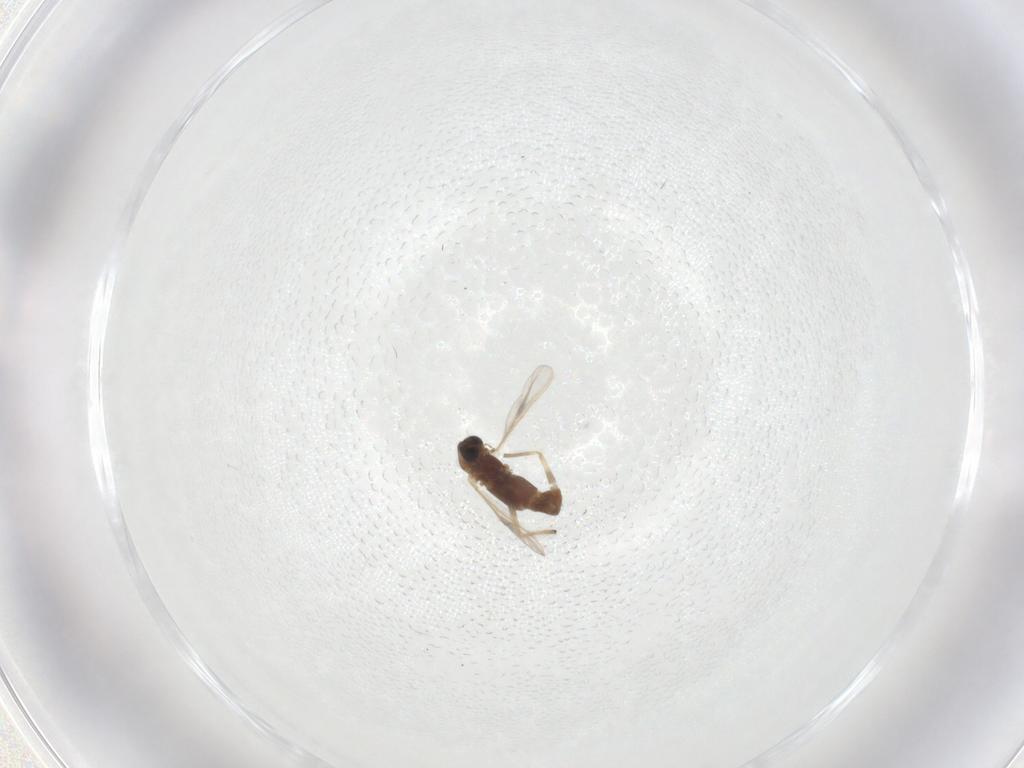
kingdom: Animalia
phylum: Arthropoda
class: Insecta
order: Diptera
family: Chironomidae
